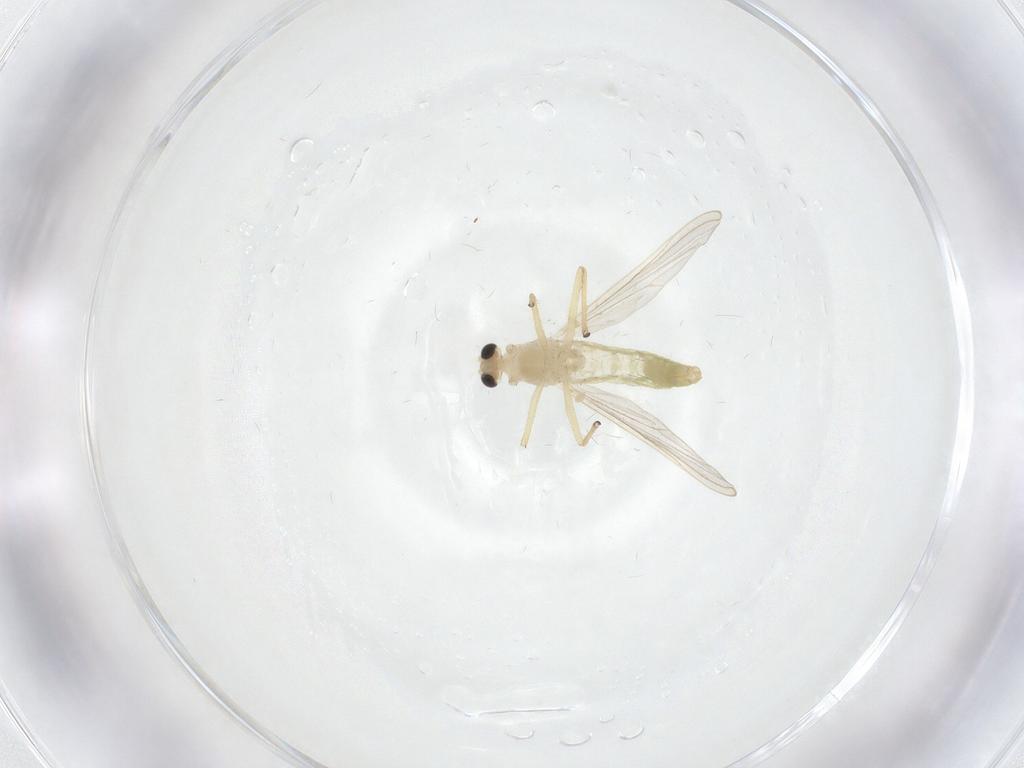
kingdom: Animalia
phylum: Arthropoda
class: Insecta
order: Diptera
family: Chironomidae
